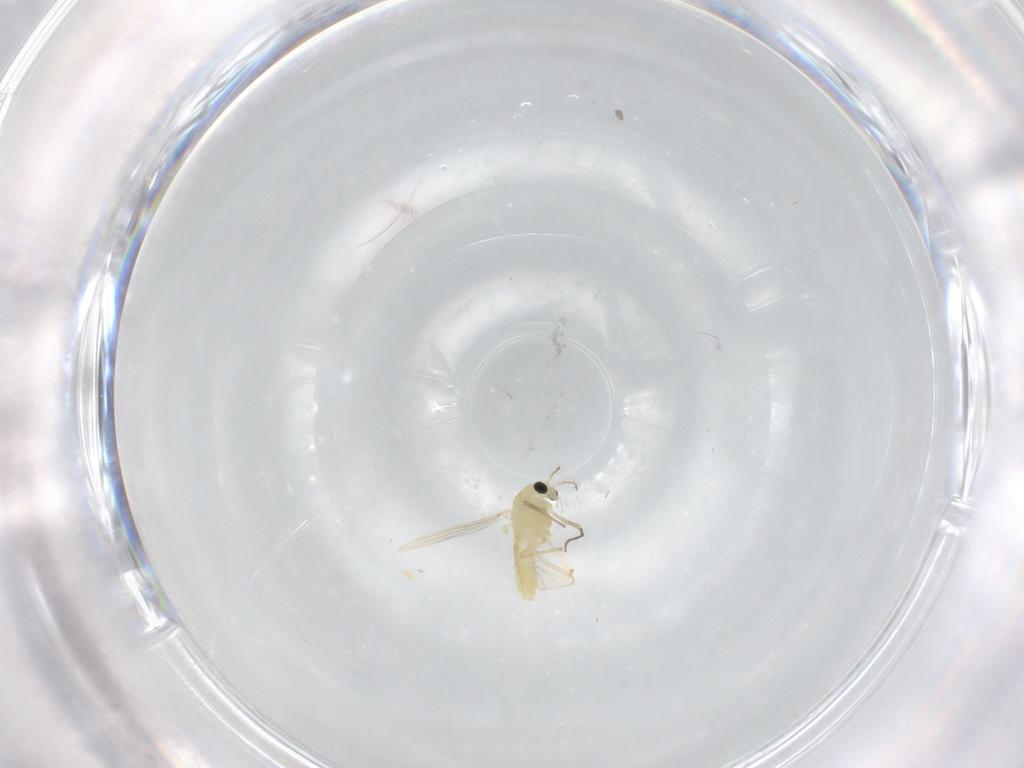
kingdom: Animalia
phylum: Arthropoda
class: Insecta
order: Diptera
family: Chironomidae
